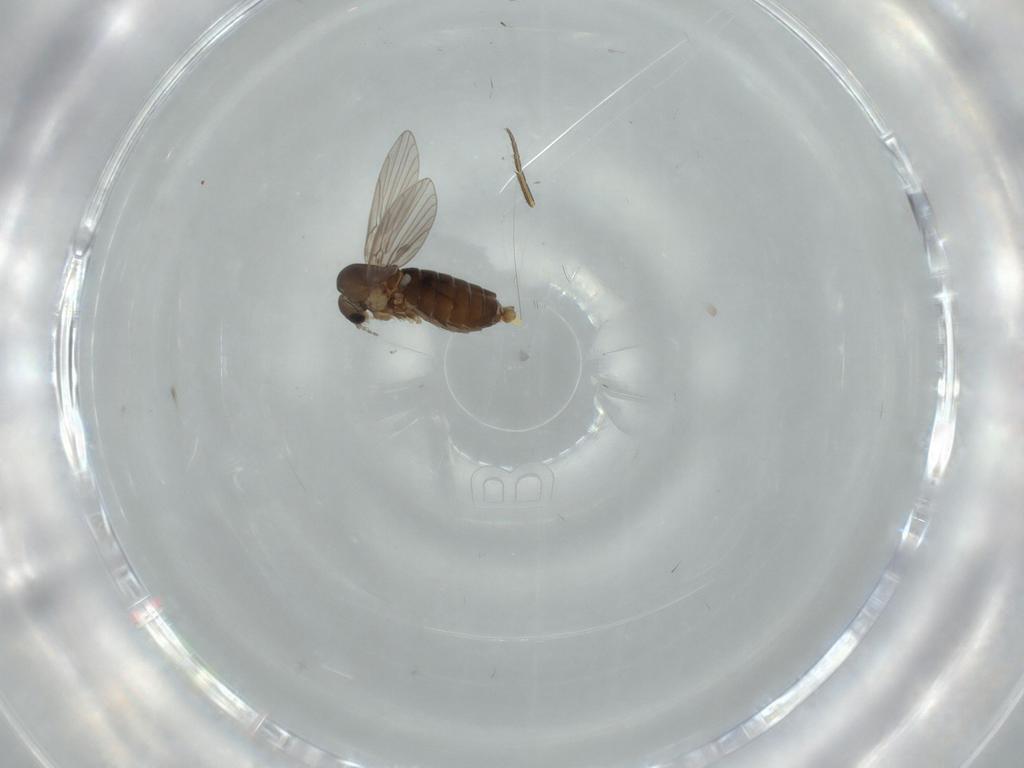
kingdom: Animalia
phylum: Arthropoda
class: Insecta
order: Diptera
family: Phoridae
